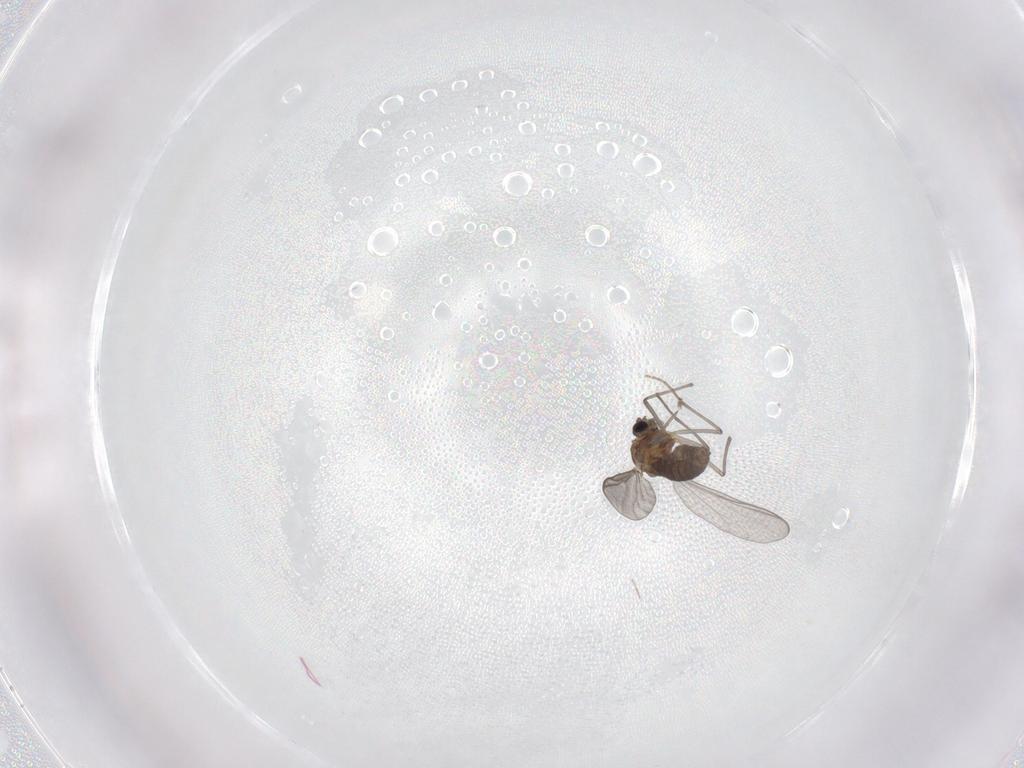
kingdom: Animalia
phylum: Arthropoda
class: Insecta
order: Diptera
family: Chironomidae
